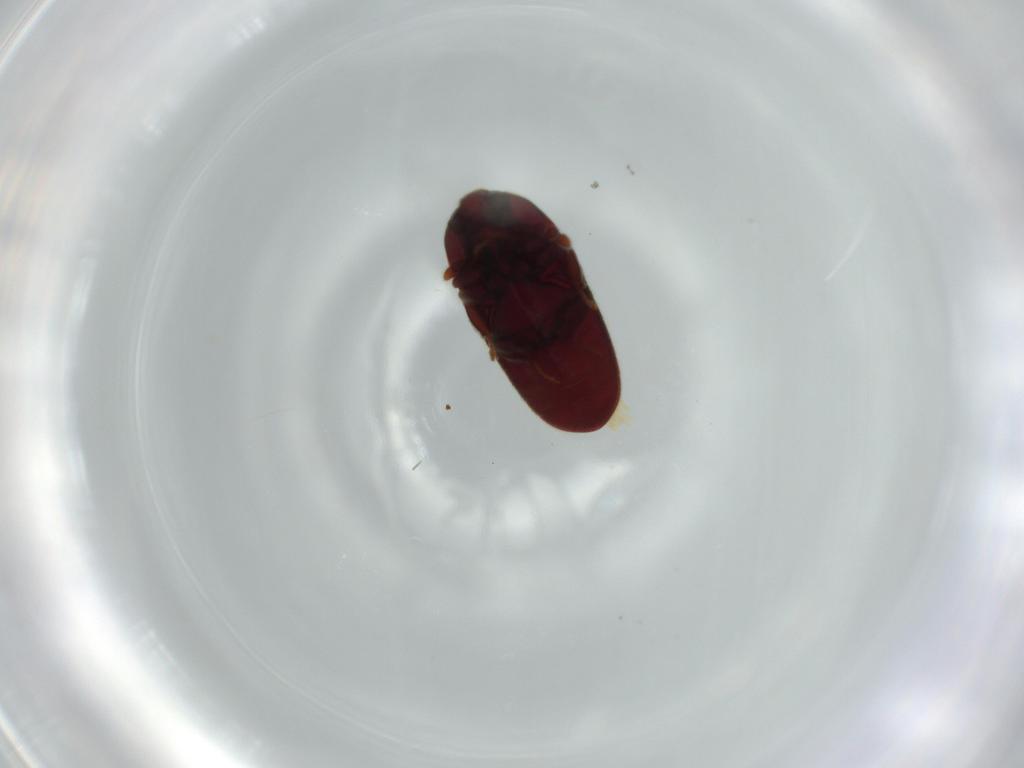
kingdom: Animalia
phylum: Arthropoda
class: Insecta
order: Coleoptera
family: Throscidae
